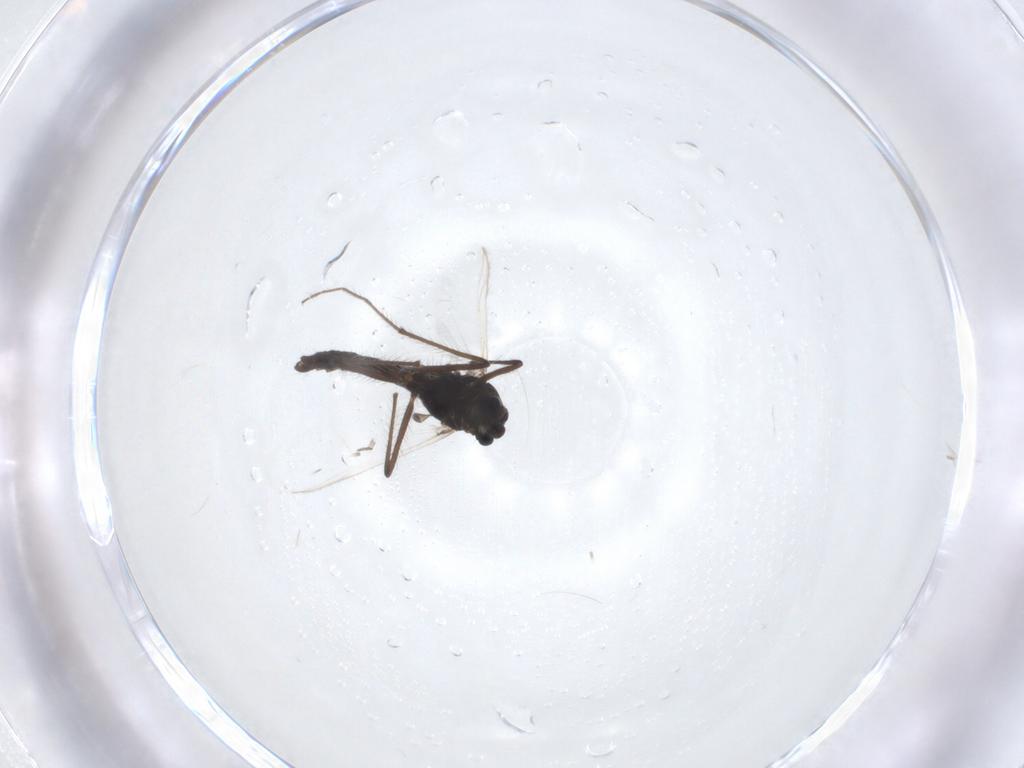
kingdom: Animalia
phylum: Arthropoda
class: Insecta
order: Diptera
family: Chironomidae
